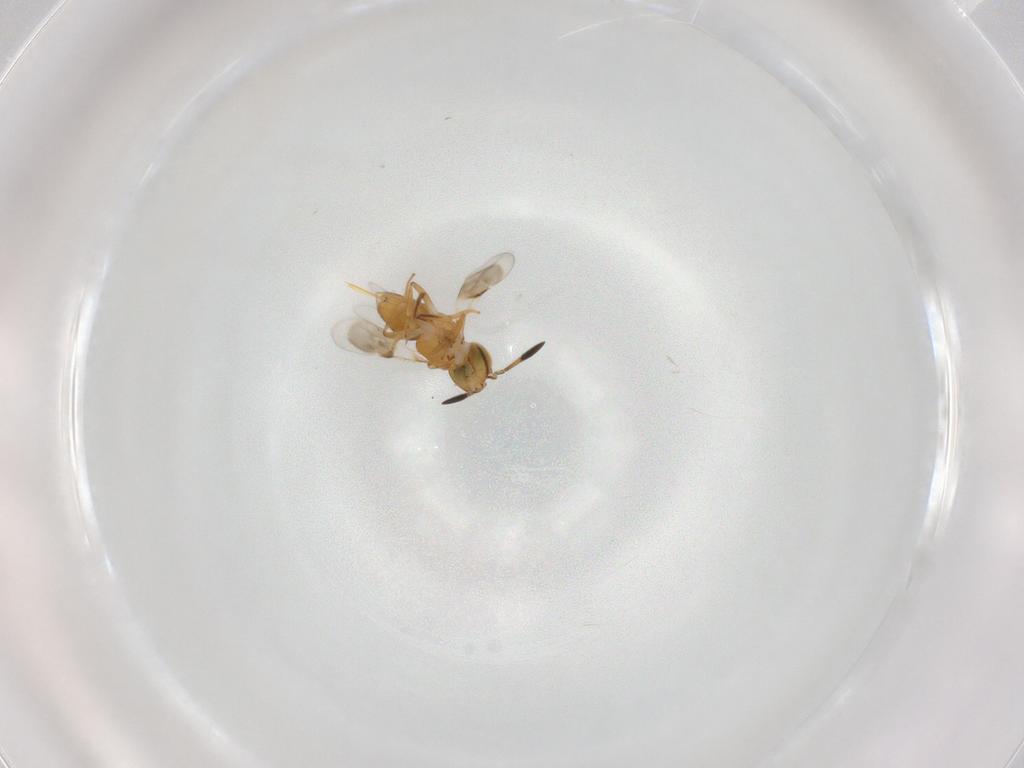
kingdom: Animalia
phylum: Arthropoda
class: Insecta
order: Hymenoptera
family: Encyrtidae
